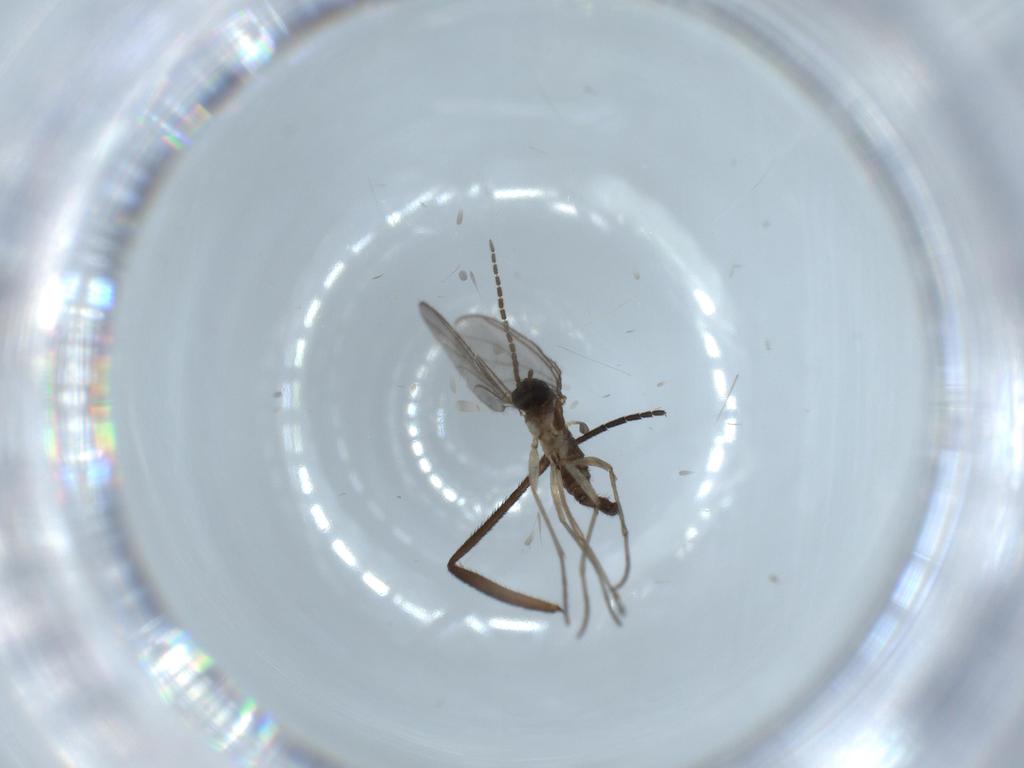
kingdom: Animalia
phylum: Arthropoda
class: Insecta
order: Diptera
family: Sciaridae
